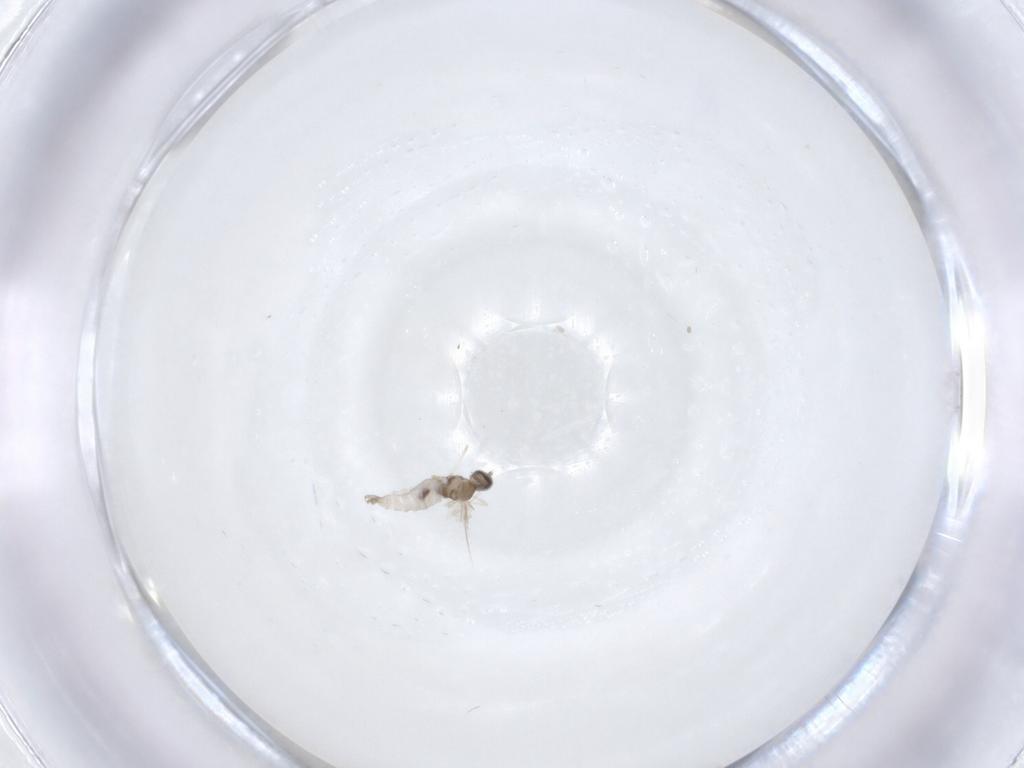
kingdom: Animalia
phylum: Arthropoda
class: Insecta
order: Diptera
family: Cecidomyiidae
